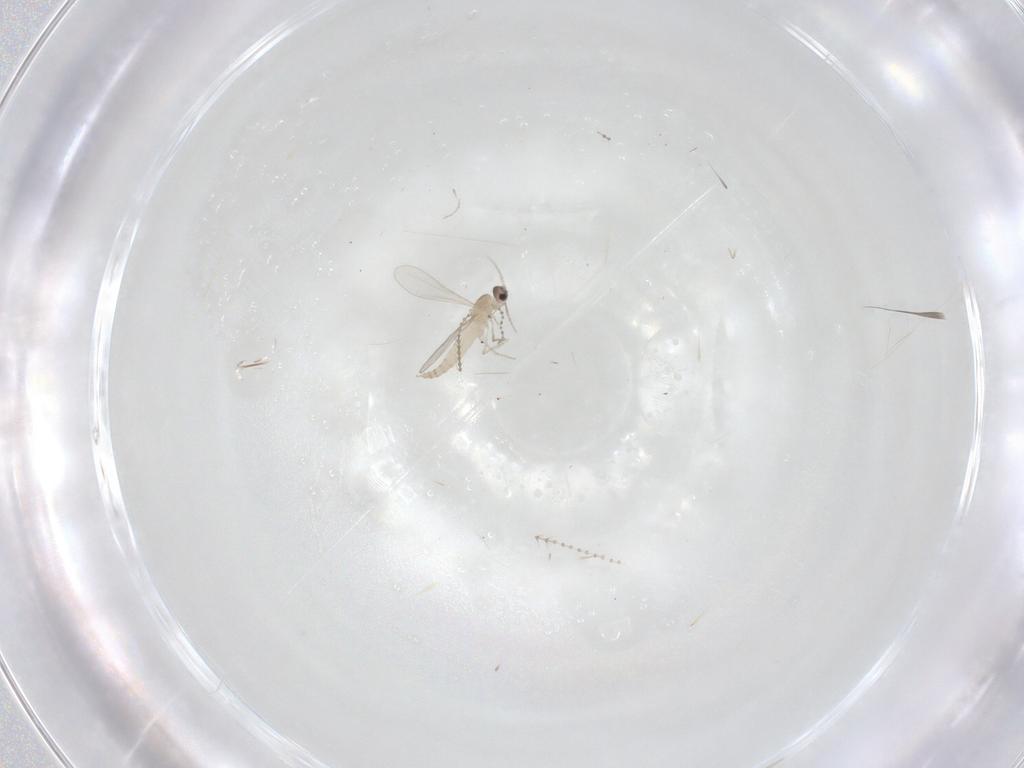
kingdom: Animalia
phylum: Arthropoda
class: Insecta
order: Diptera
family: Cecidomyiidae
